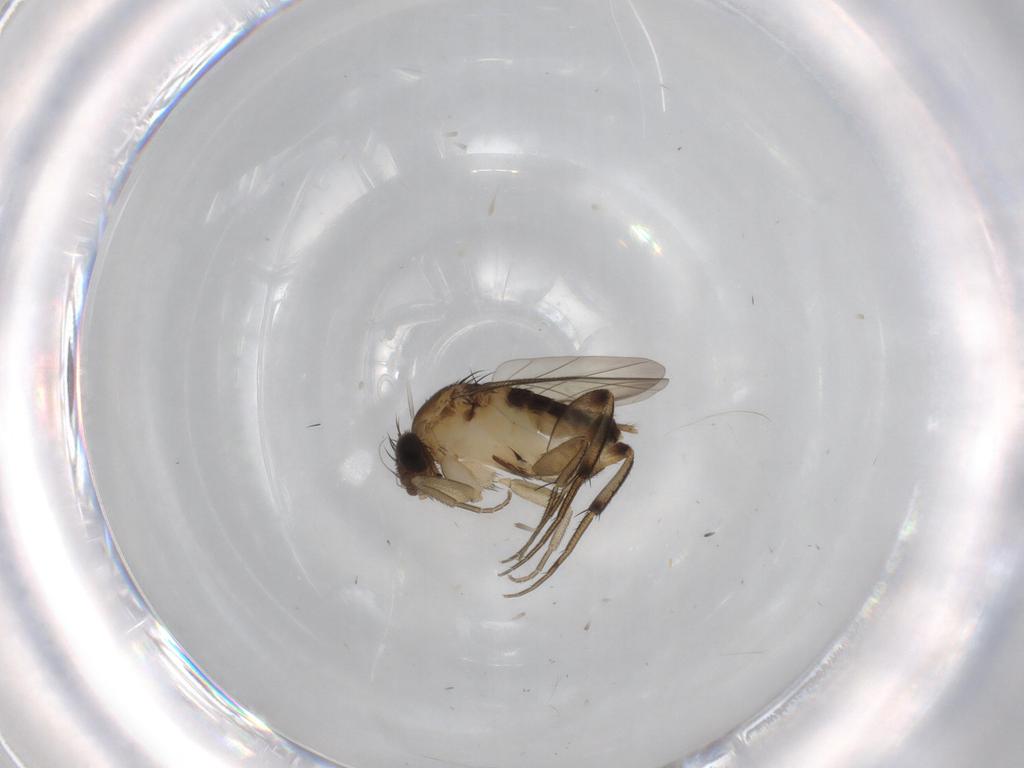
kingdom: Animalia
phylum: Arthropoda
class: Insecta
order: Diptera
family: Phoridae
